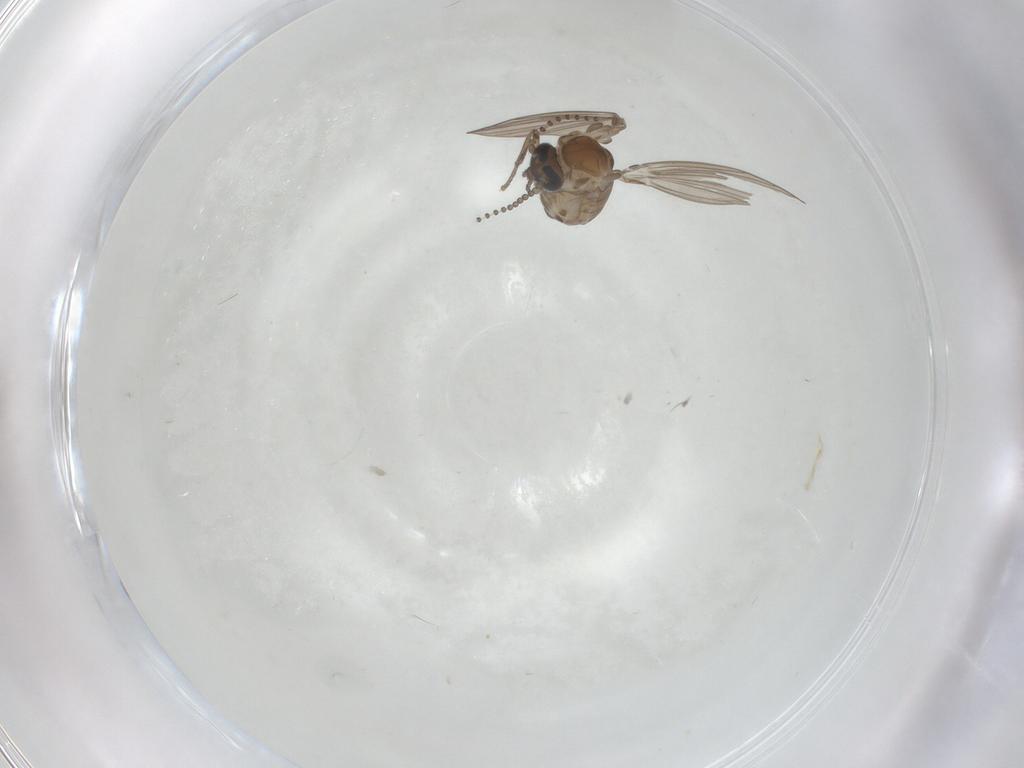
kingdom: Animalia
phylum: Arthropoda
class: Insecta
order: Diptera
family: Psychodidae
